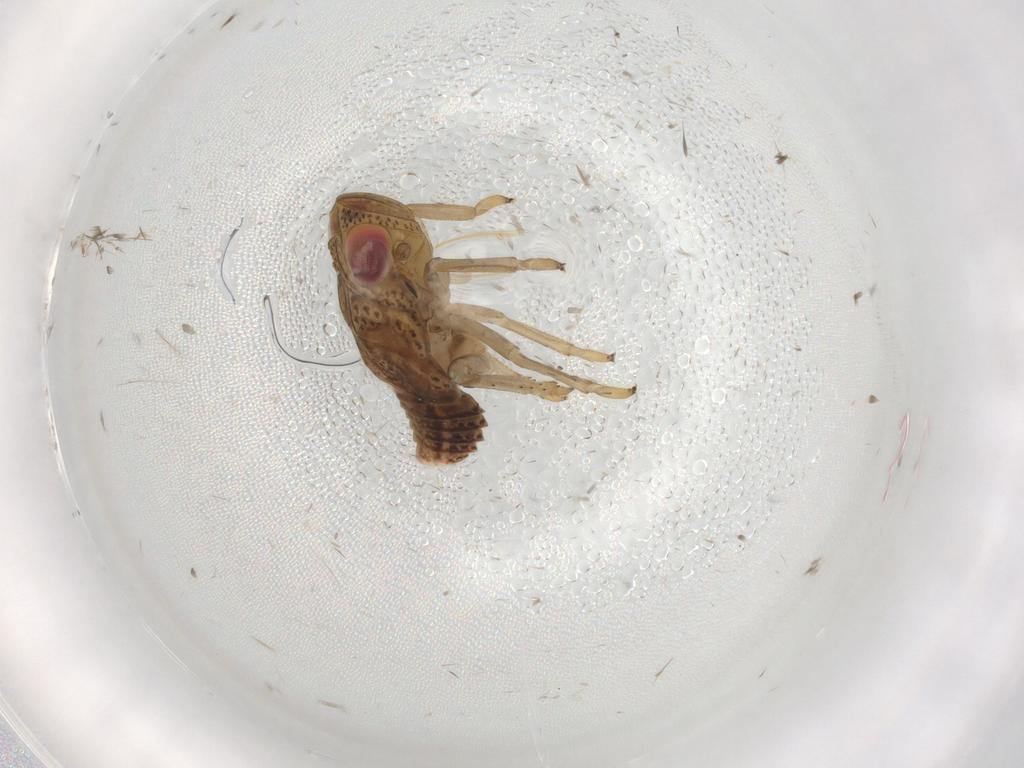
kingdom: Animalia
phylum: Arthropoda
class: Insecta
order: Hemiptera
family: Issidae
